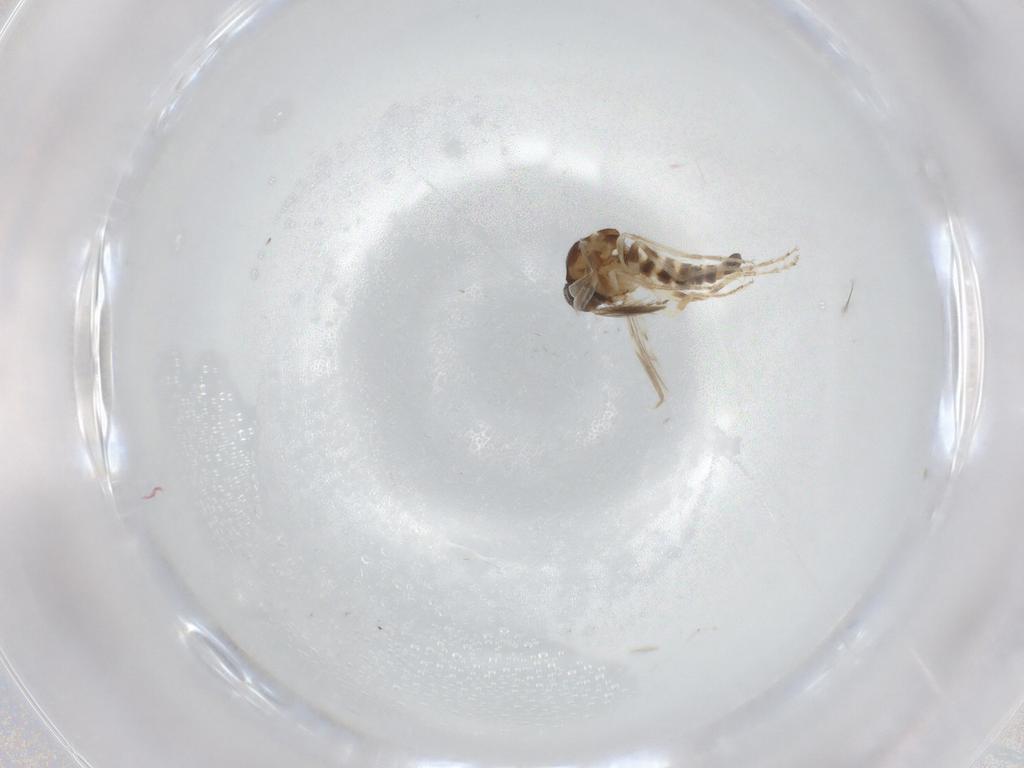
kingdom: Animalia
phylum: Arthropoda
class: Insecta
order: Diptera
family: Ceratopogonidae
